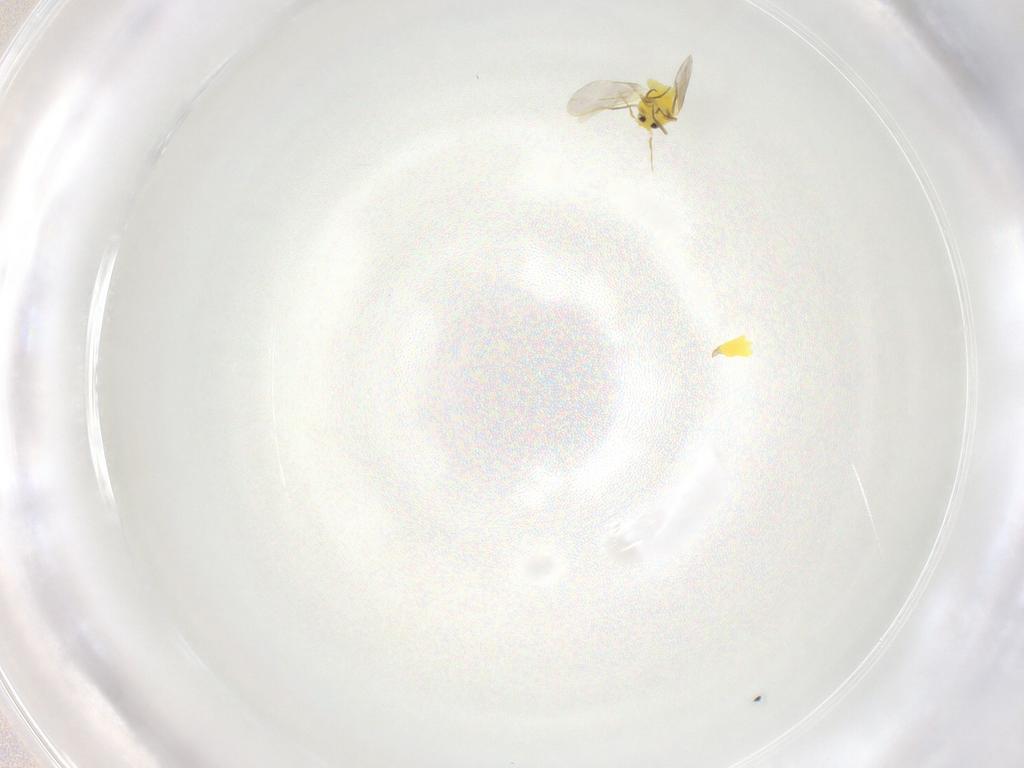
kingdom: Animalia
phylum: Arthropoda
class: Insecta
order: Hemiptera
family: Aleyrodidae
